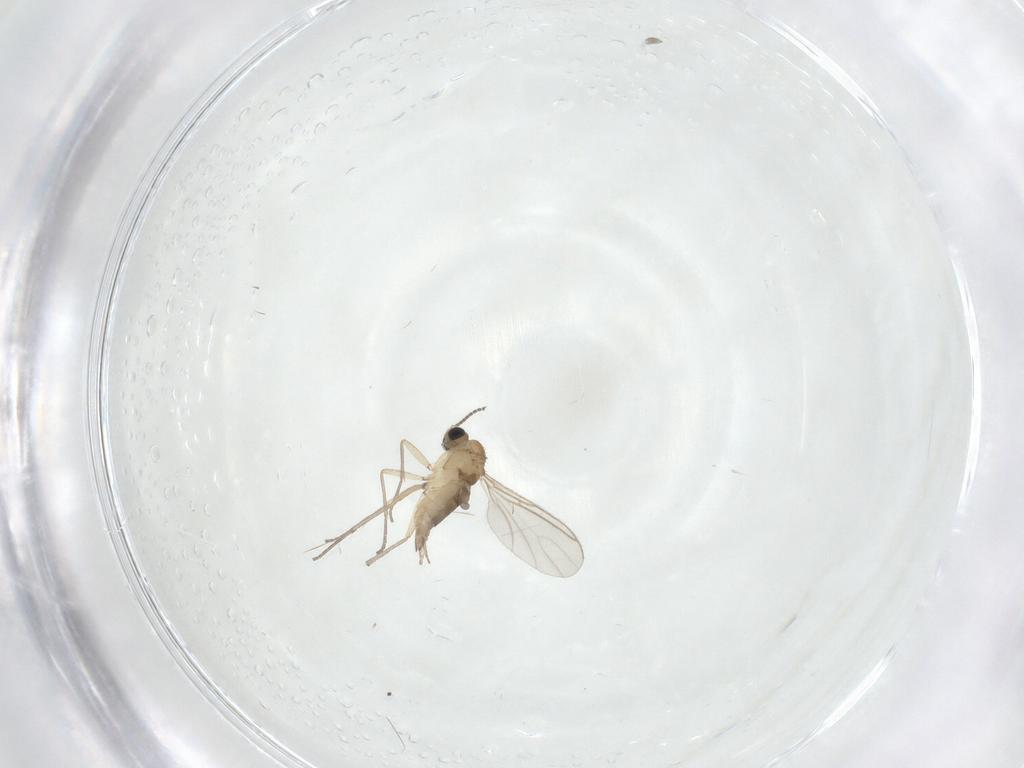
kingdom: Animalia
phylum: Arthropoda
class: Insecta
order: Diptera
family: Sciaridae
